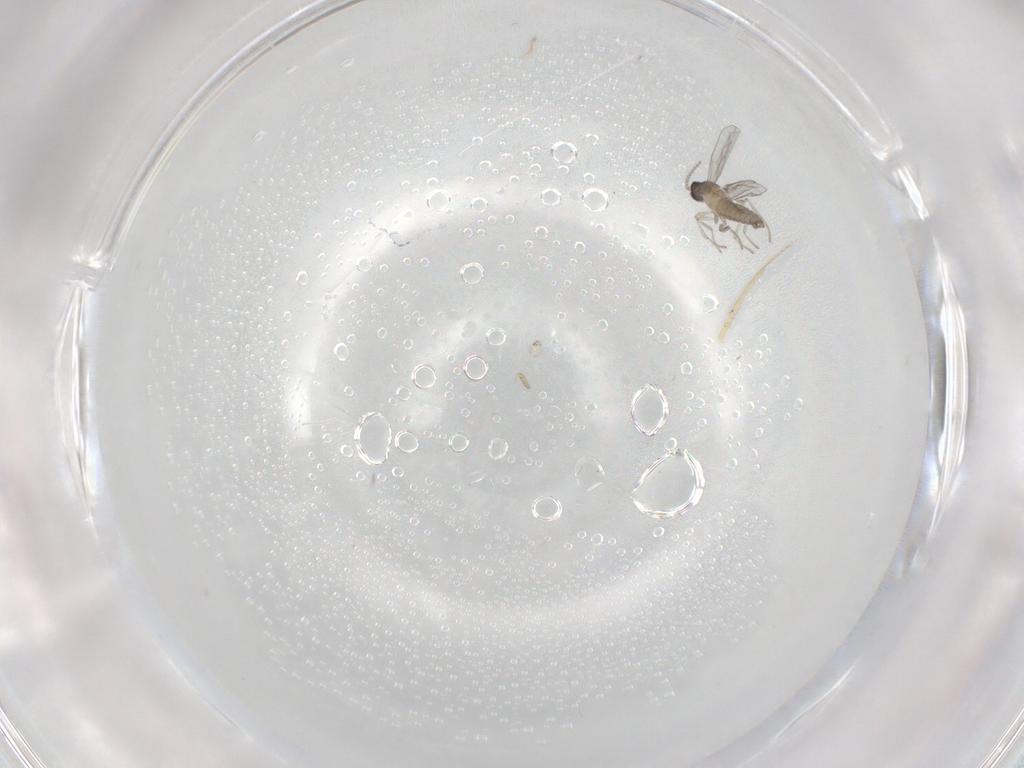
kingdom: Animalia
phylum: Arthropoda
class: Insecta
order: Diptera
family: Cecidomyiidae
